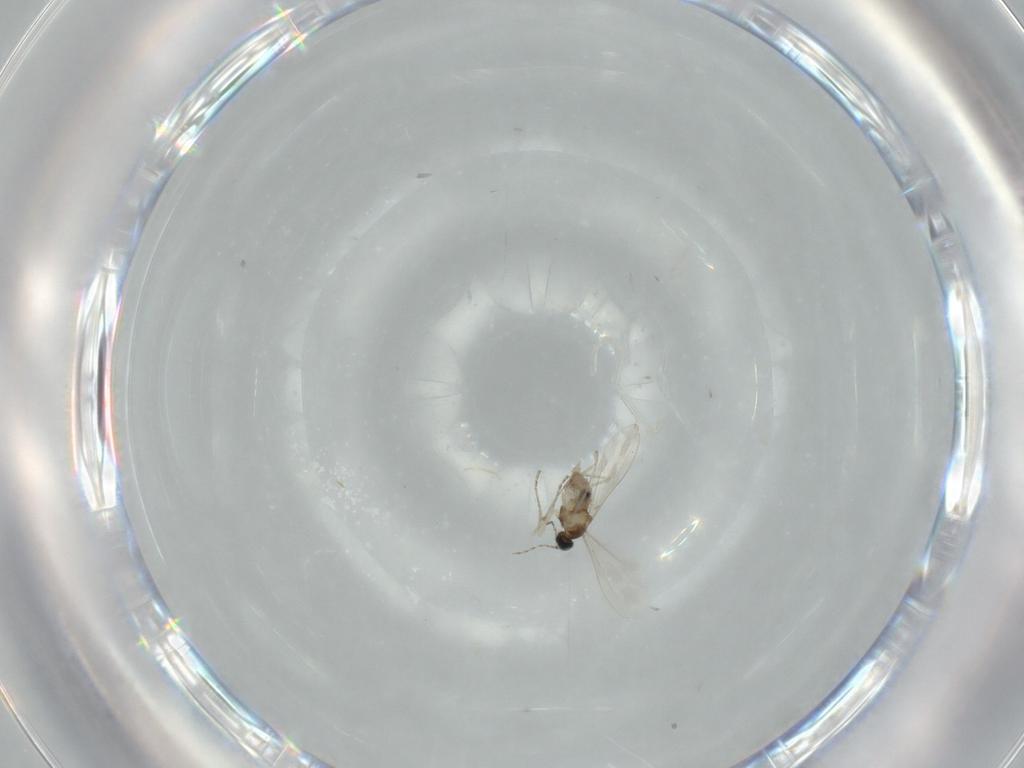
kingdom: Animalia
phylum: Arthropoda
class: Insecta
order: Diptera
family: Cecidomyiidae
